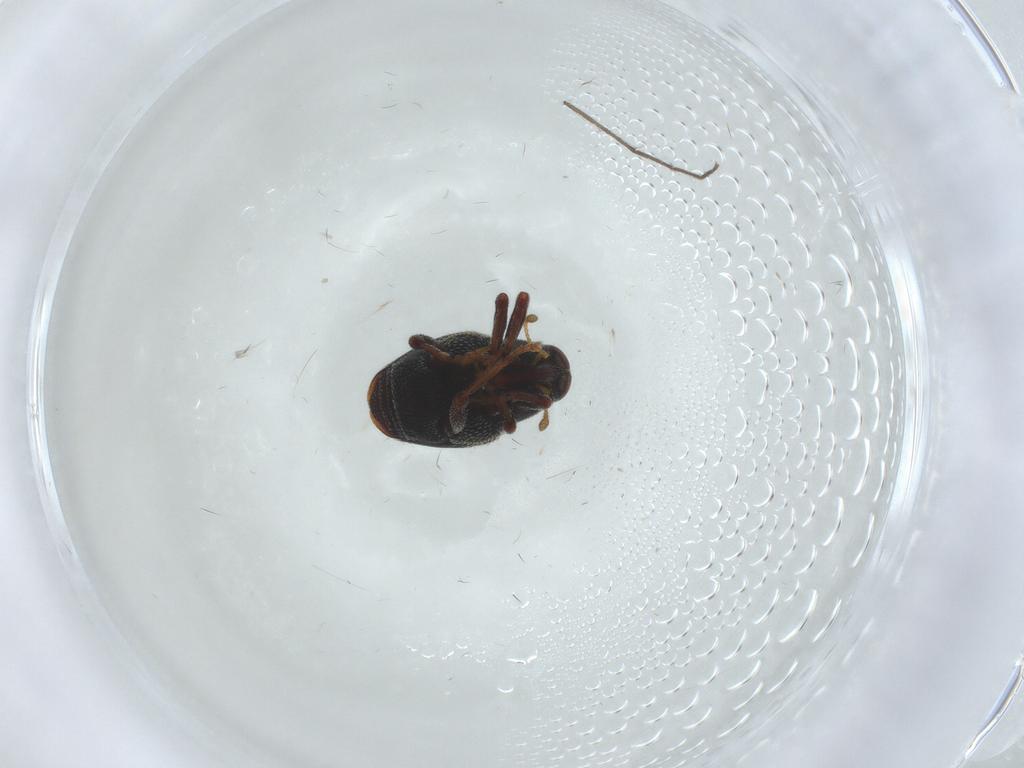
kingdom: Animalia
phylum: Arthropoda
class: Insecta
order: Coleoptera
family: Curculionidae
